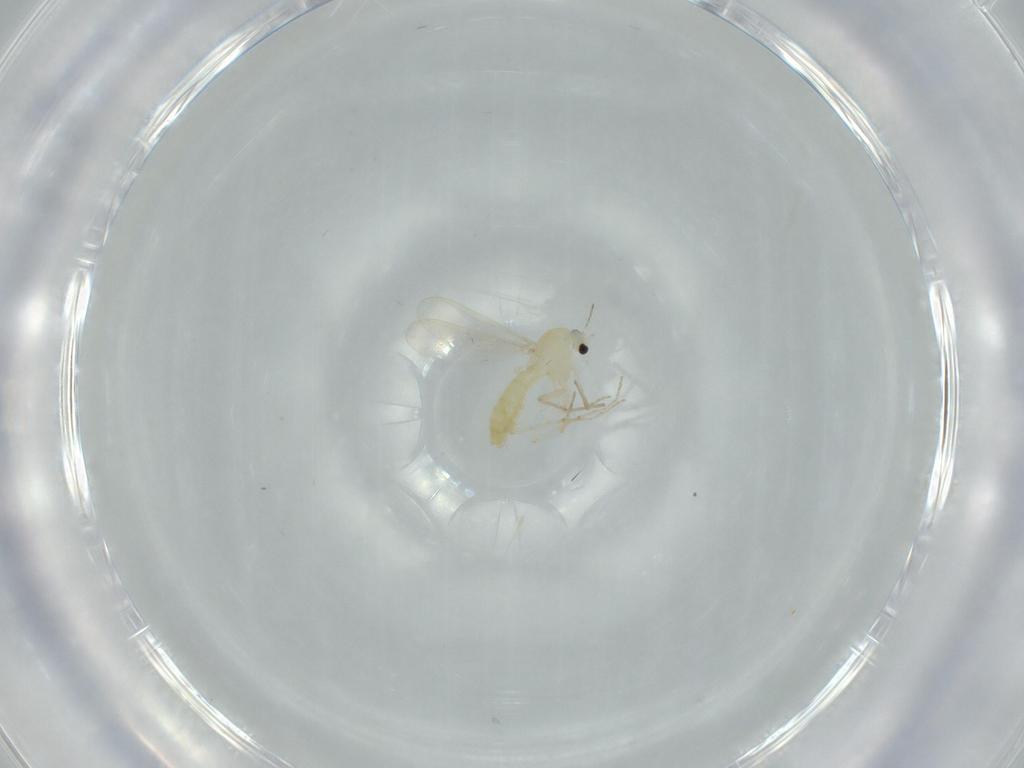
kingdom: Animalia
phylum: Arthropoda
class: Insecta
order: Diptera
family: Chironomidae
